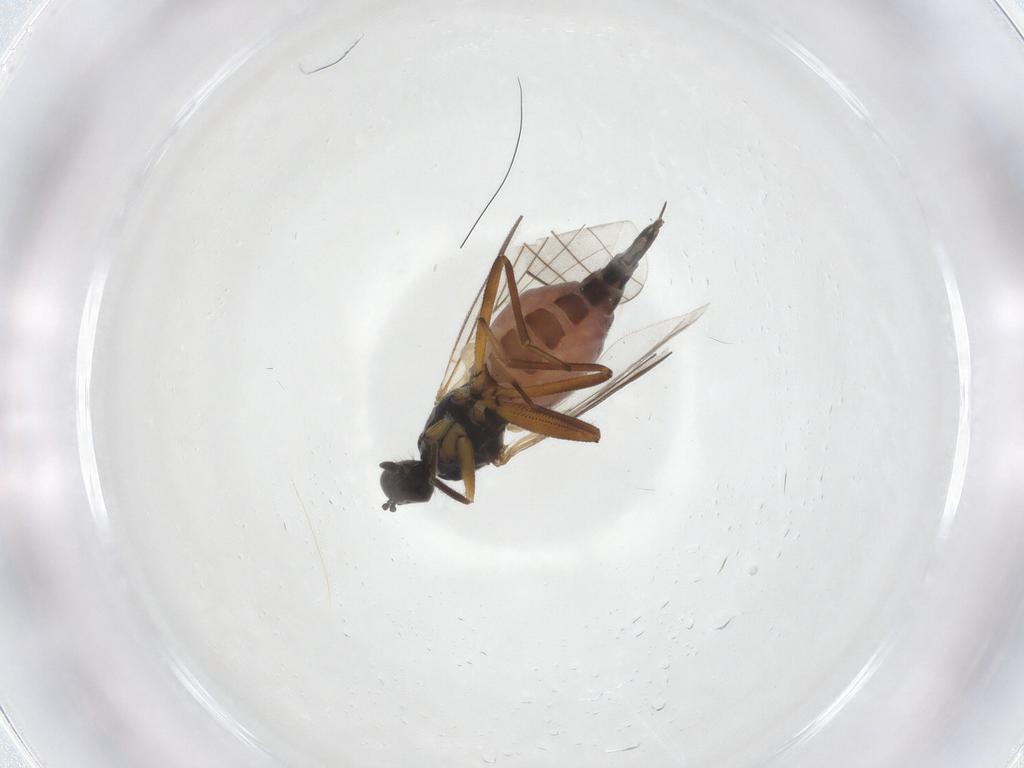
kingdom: Animalia
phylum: Arthropoda
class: Insecta
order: Diptera
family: Hybotidae
